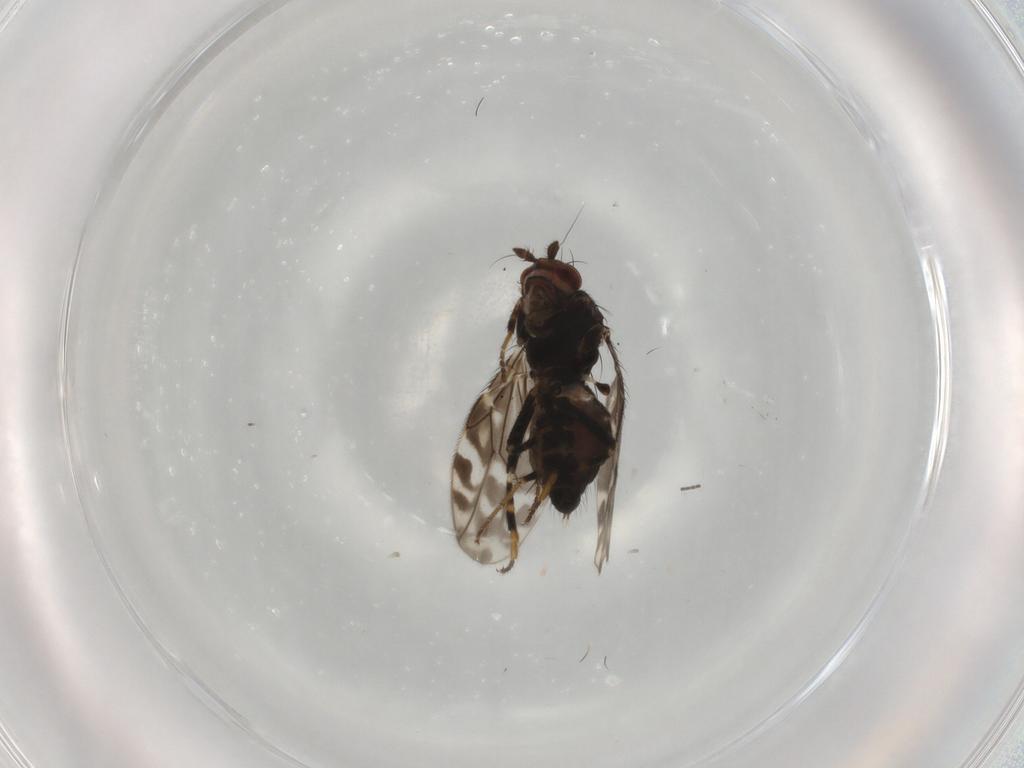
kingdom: Animalia
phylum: Arthropoda
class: Insecta
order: Diptera
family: Sphaeroceridae
